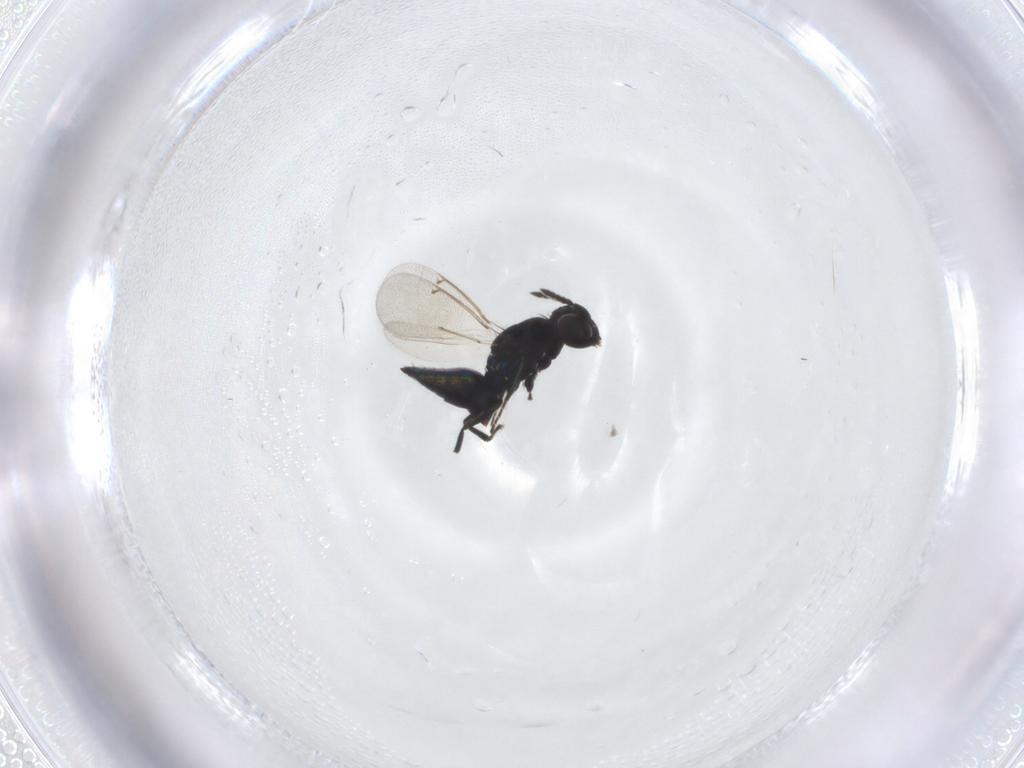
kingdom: Animalia
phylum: Arthropoda
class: Insecta
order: Hymenoptera
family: Eulophidae
